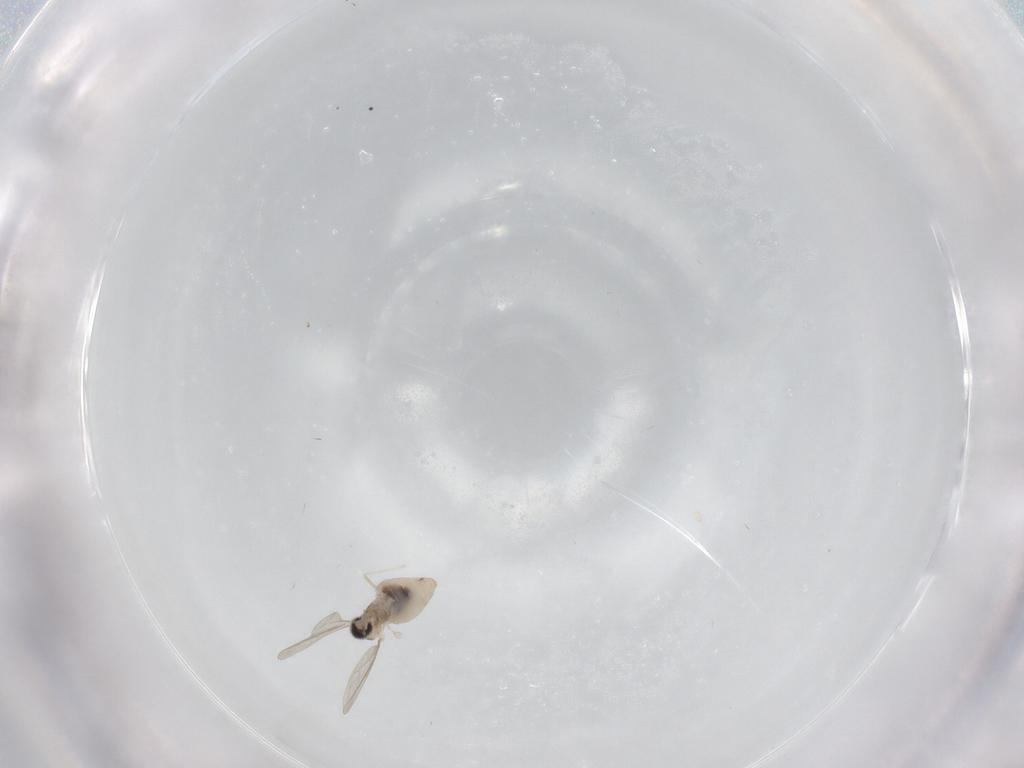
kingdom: Animalia
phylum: Arthropoda
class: Insecta
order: Diptera
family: Cecidomyiidae
